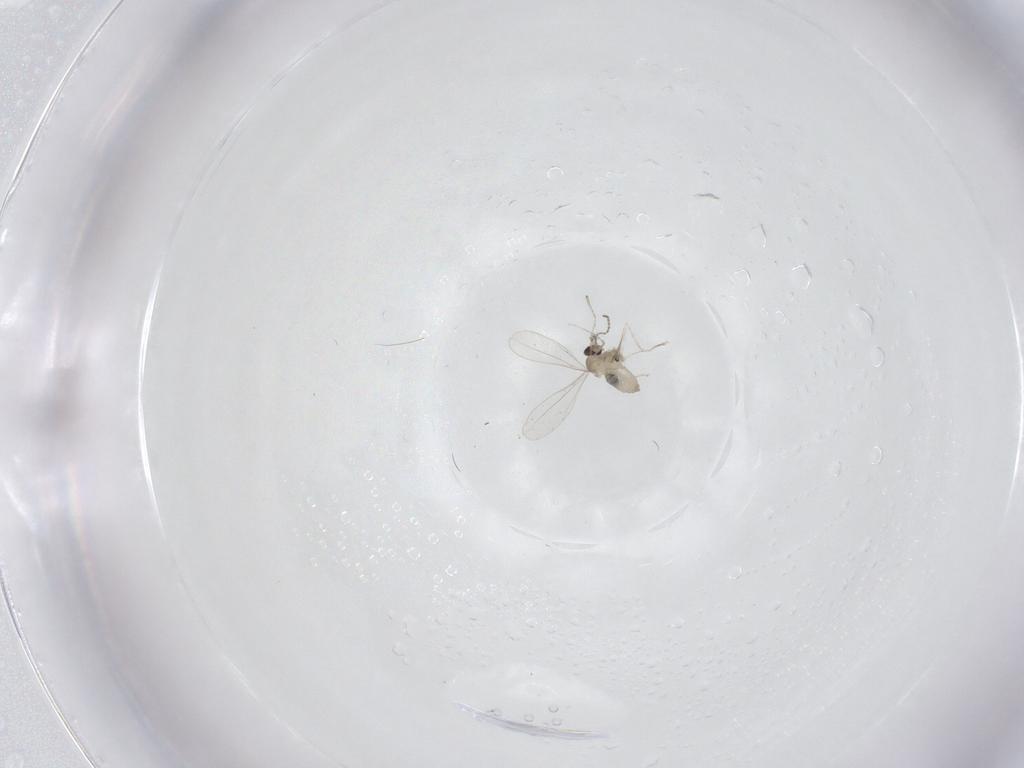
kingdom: Animalia
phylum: Arthropoda
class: Insecta
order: Diptera
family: Cecidomyiidae
